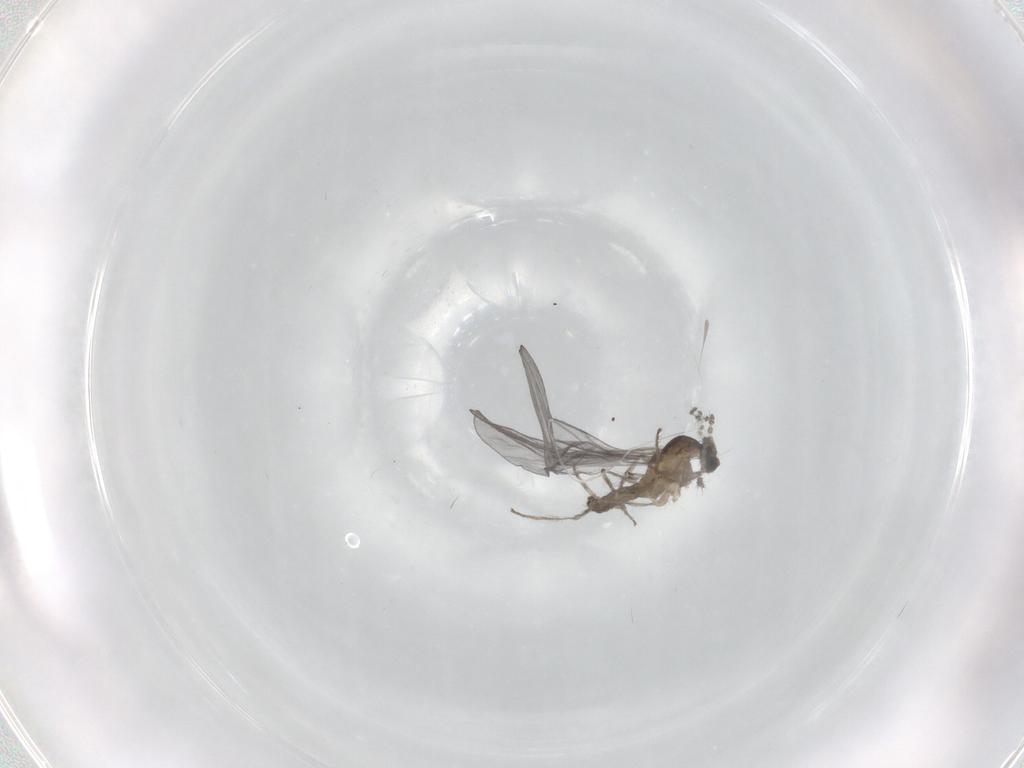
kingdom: Animalia
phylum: Arthropoda
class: Insecta
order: Diptera
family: Cecidomyiidae
